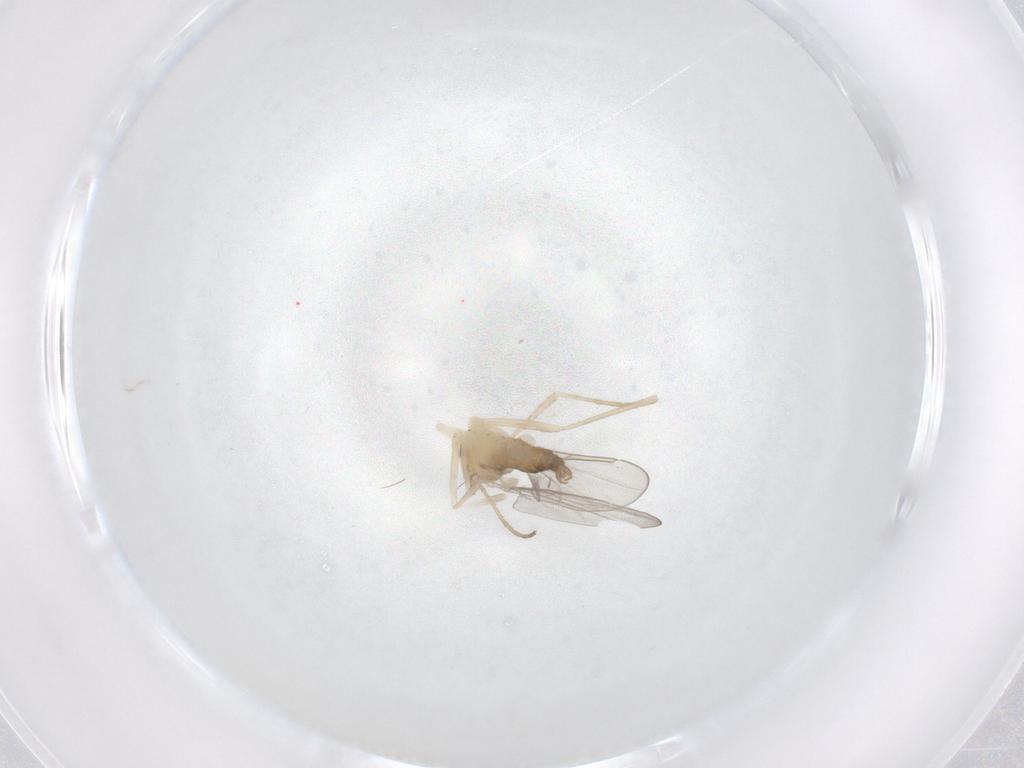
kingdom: Animalia
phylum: Arthropoda
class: Insecta
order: Diptera
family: Cecidomyiidae
